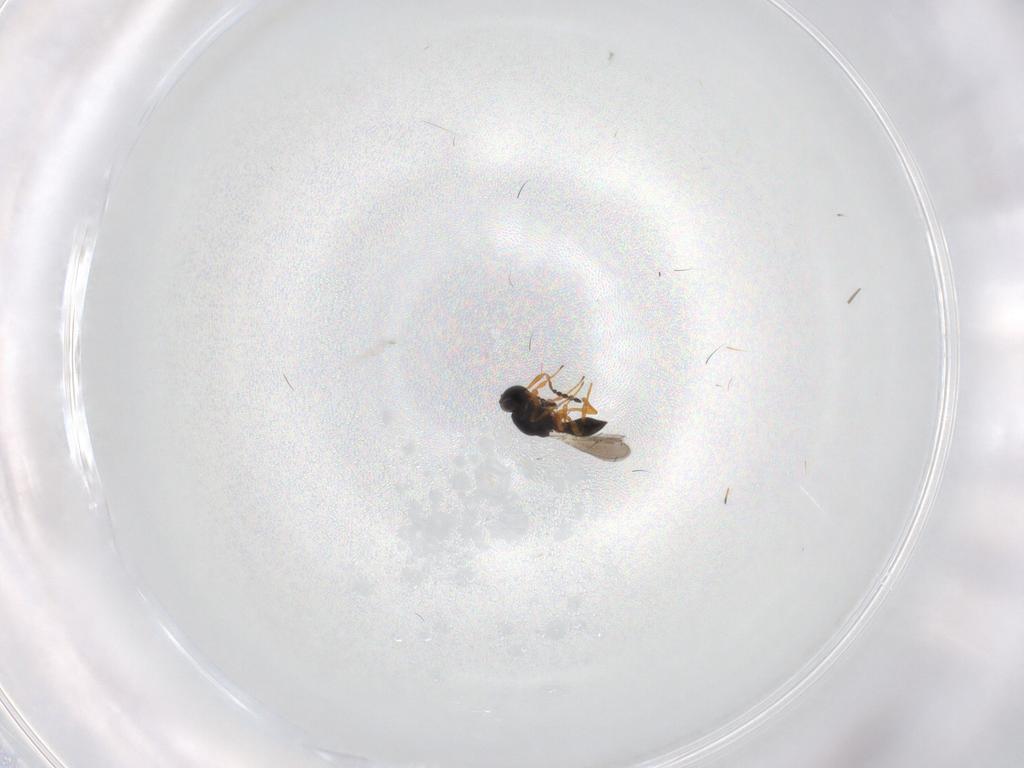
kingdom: Animalia
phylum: Arthropoda
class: Insecta
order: Hymenoptera
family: Platygastridae
